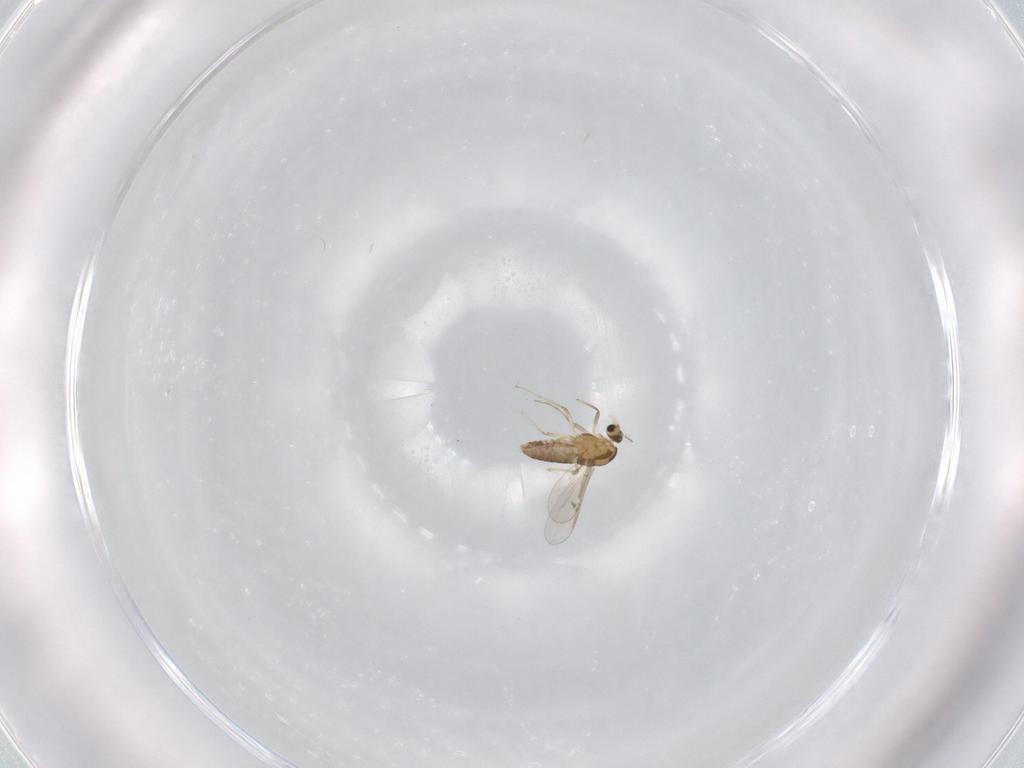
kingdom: Animalia
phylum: Arthropoda
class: Insecta
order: Diptera
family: Chironomidae
